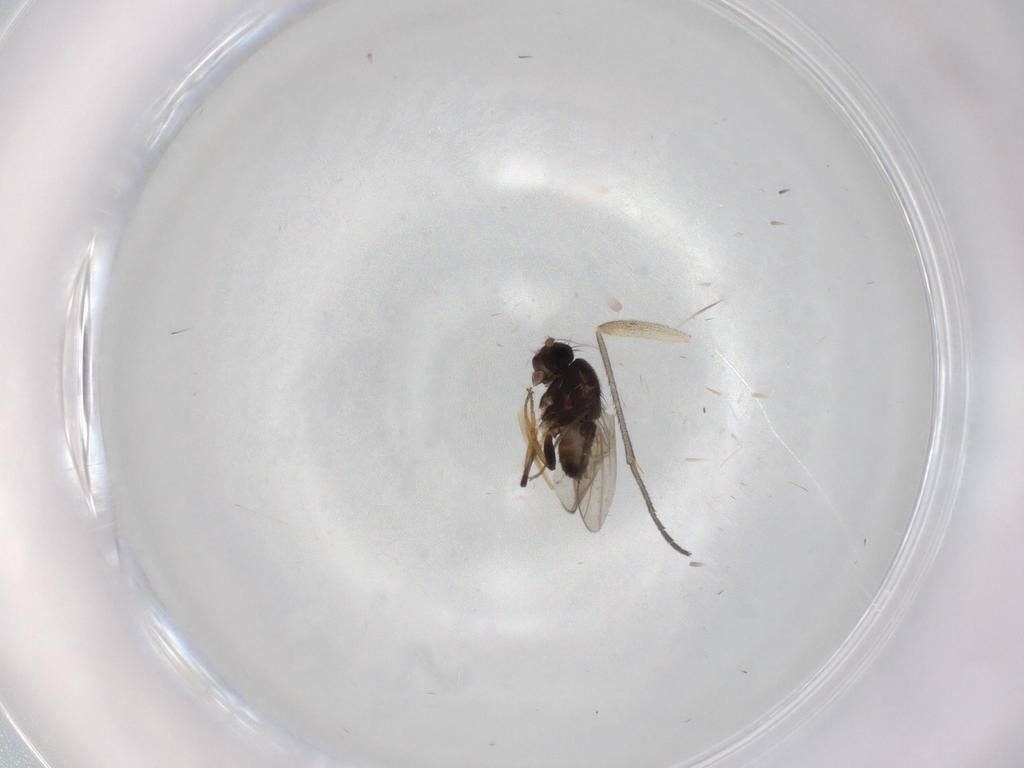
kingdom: Animalia
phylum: Arthropoda
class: Insecta
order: Diptera
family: Sphaeroceridae
